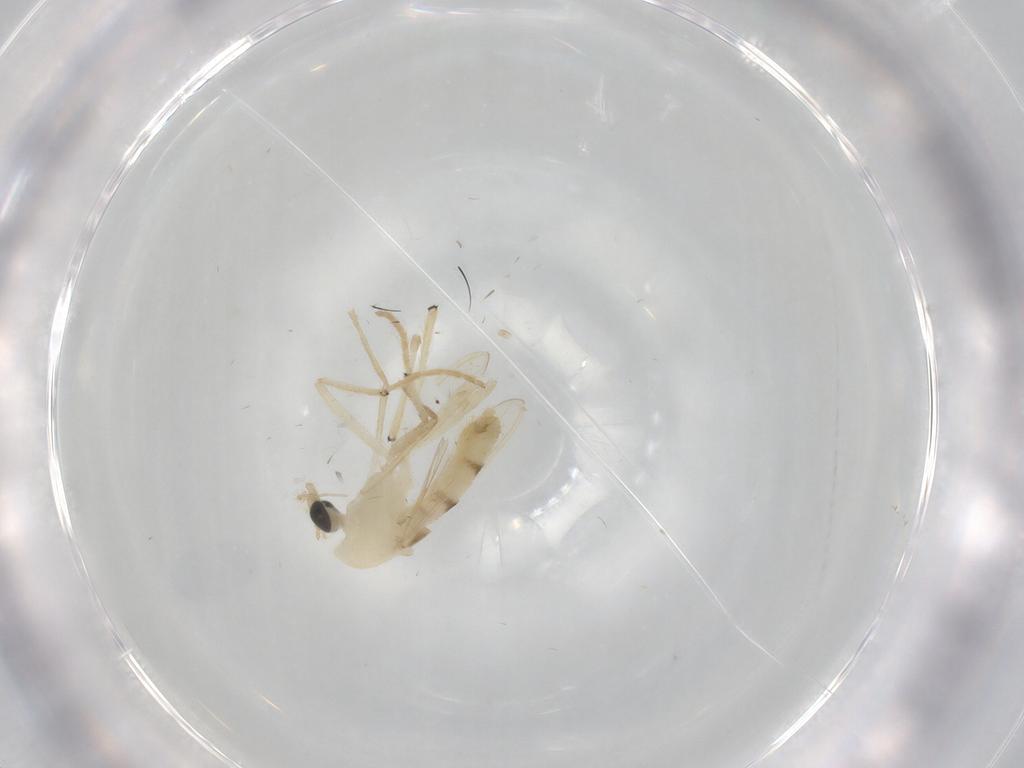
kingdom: Animalia
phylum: Arthropoda
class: Insecta
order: Diptera
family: Chironomidae
